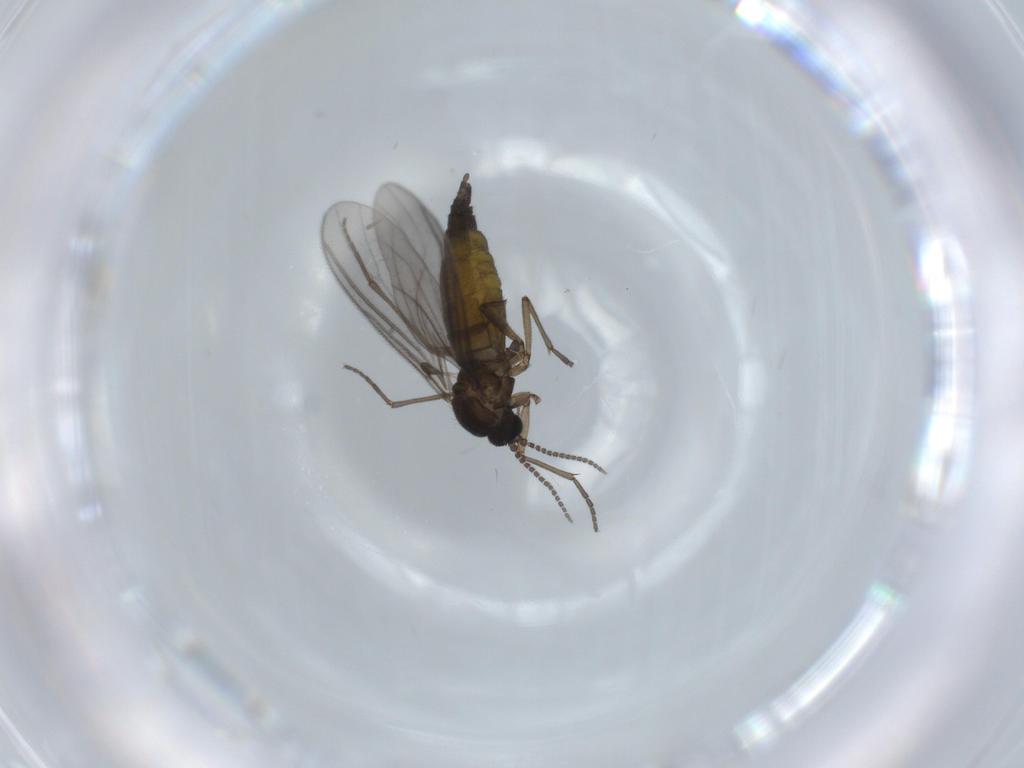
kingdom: Animalia
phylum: Arthropoda
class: Insecta
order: Diptera
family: Sciaridae
